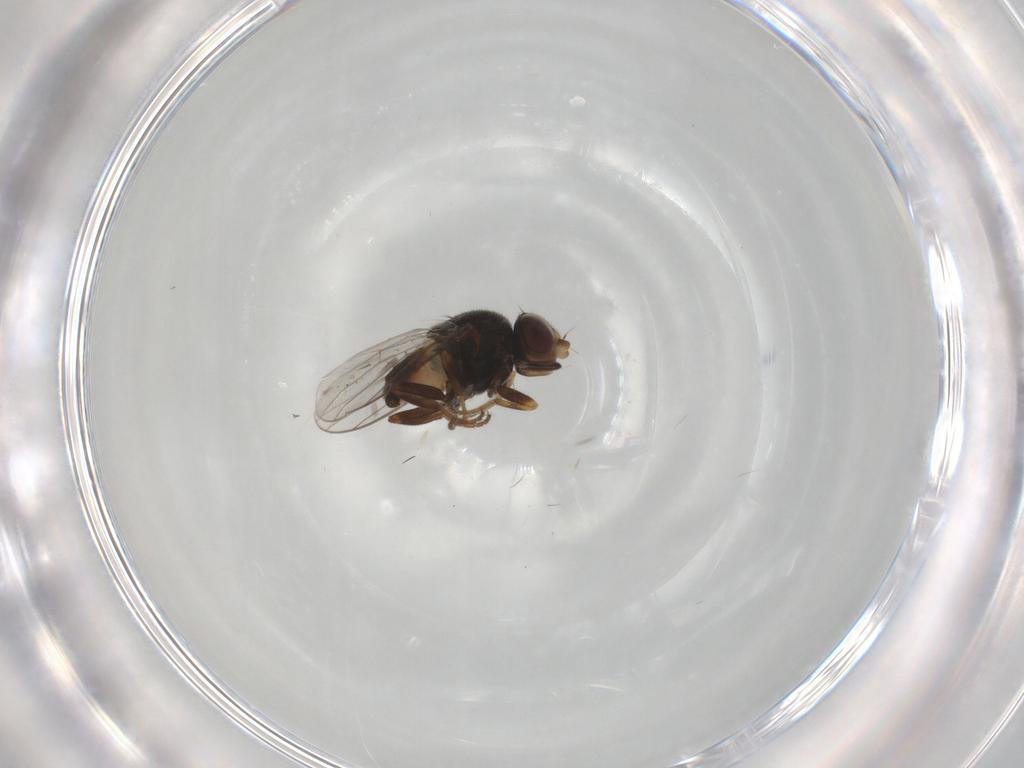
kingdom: Animalia
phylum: Arthropoda
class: Insecta
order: Diptera
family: Chloropidae
